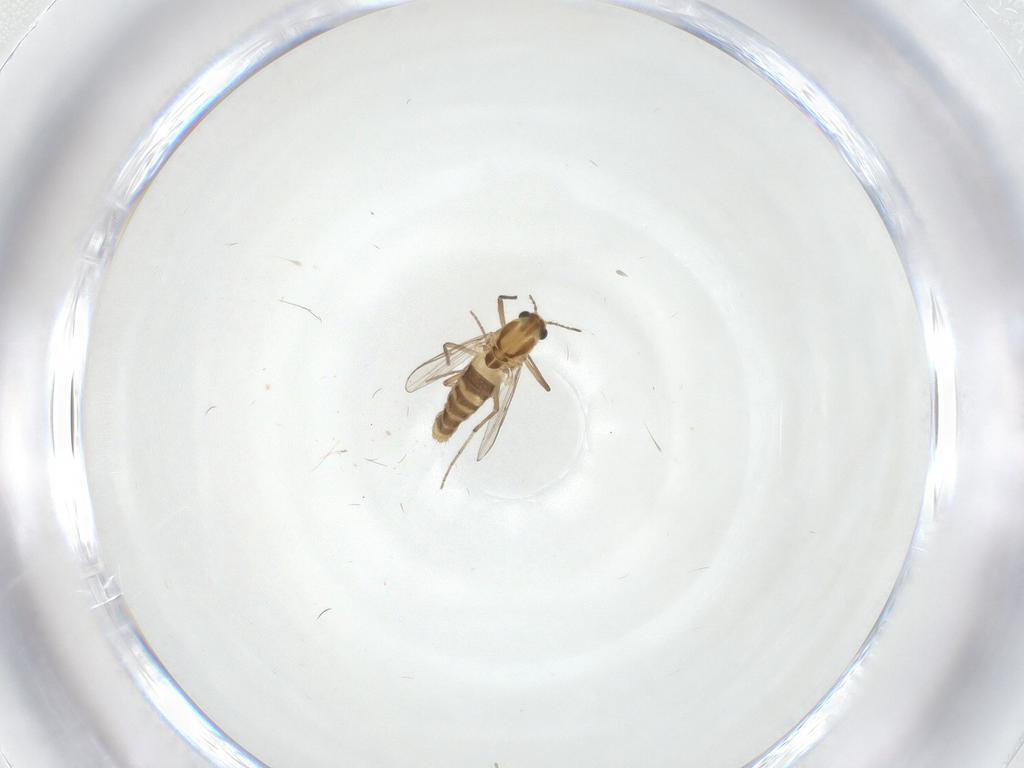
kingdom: Animalia
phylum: Arthropoda
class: Insecta
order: Diptera
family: Chironomidae
